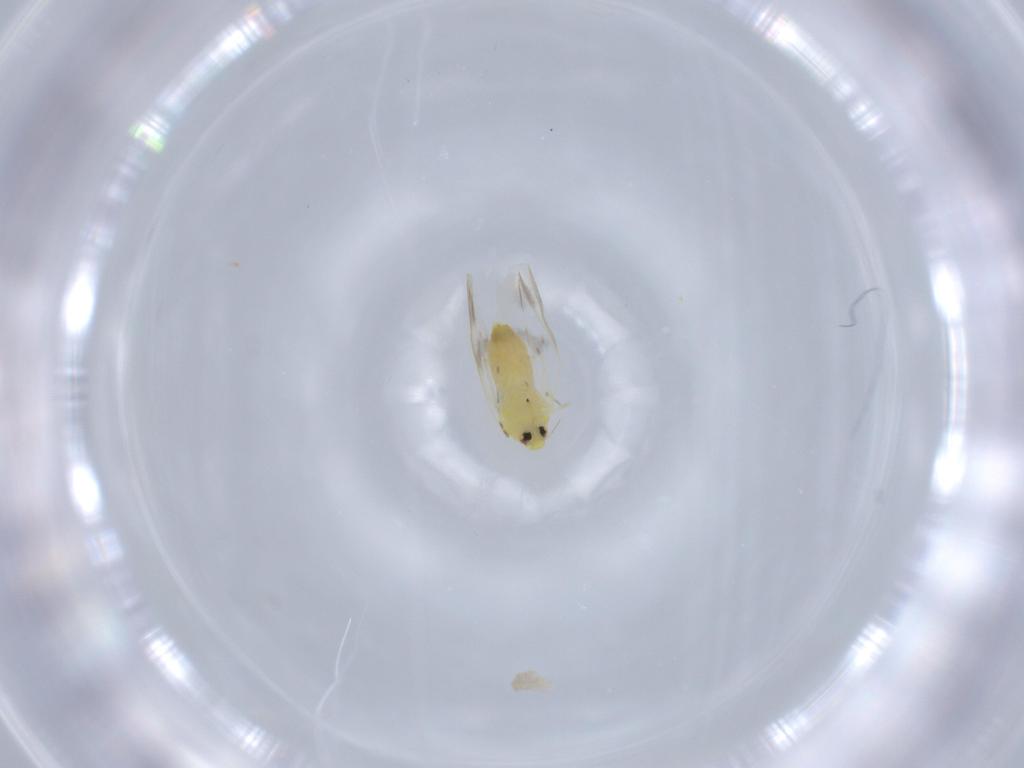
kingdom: Animalia
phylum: Arthropoda
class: Insecta
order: Hemiptera
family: Aleyrodidae
